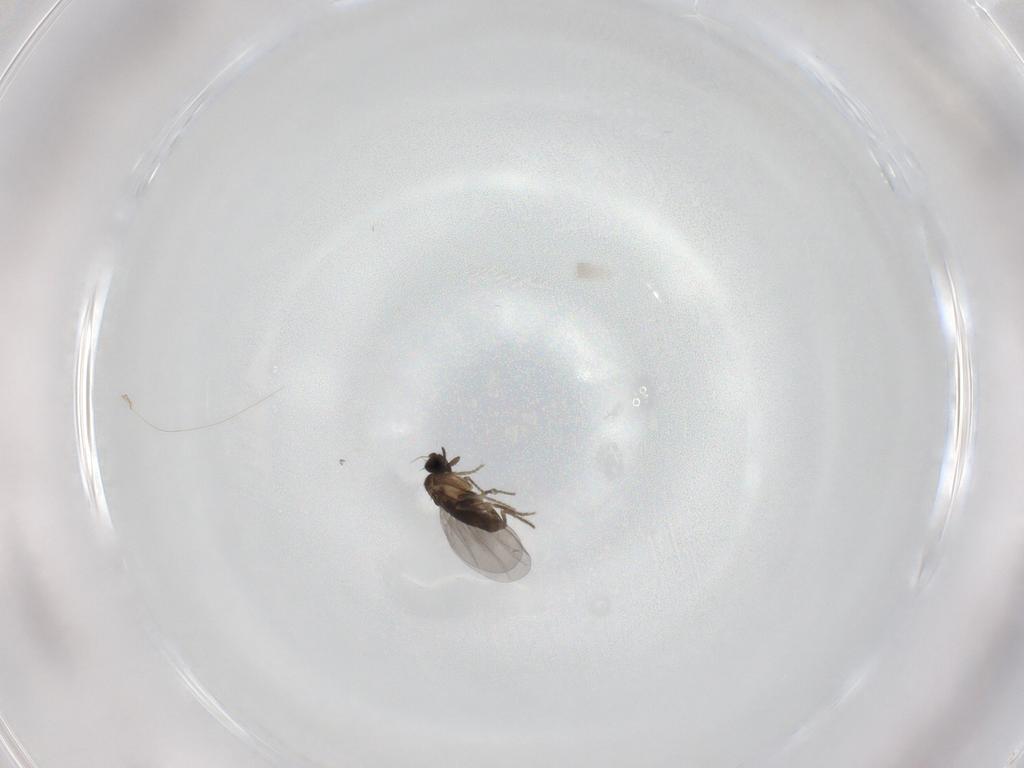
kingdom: Animalia
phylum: Arthropoda
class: Insecta
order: Diptera
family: Ceratopogonidae
